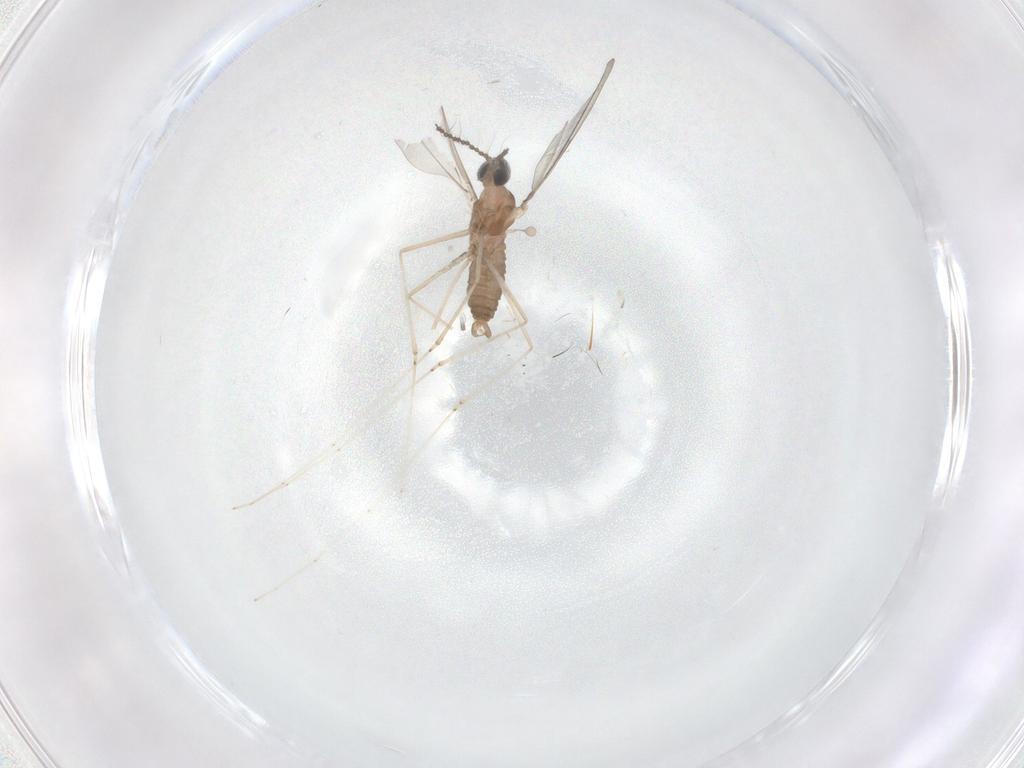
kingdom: Animalia
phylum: Arthropoda
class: Insecta
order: Diptera
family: Cecidomyiidae
